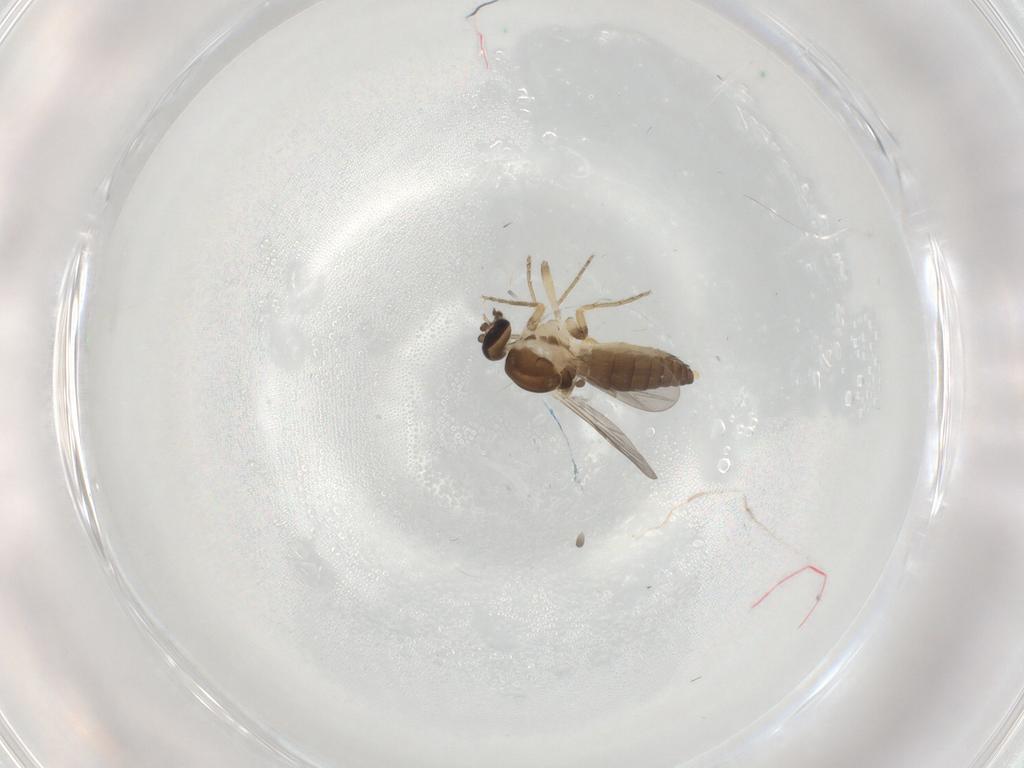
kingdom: Animalia
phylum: Arthropoda
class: Insecta
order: Diptera
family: Ceratopogonidae
